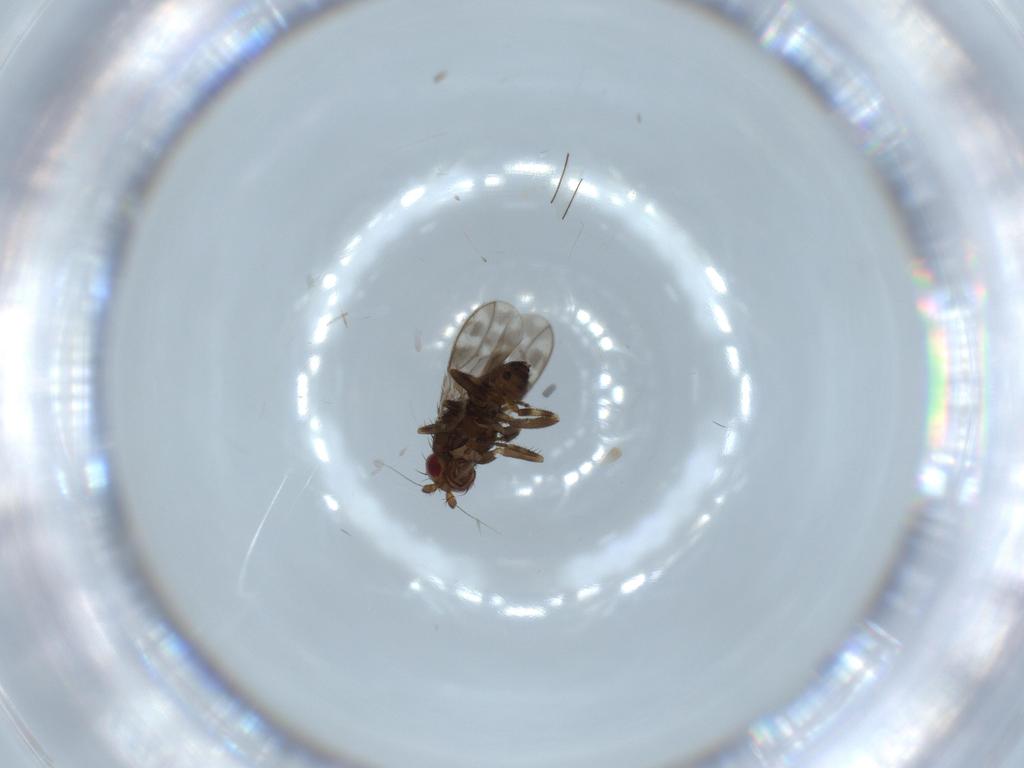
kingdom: Animalia
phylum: Arthropoda
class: Insecta
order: Diptera
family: Sphaeroceridae
